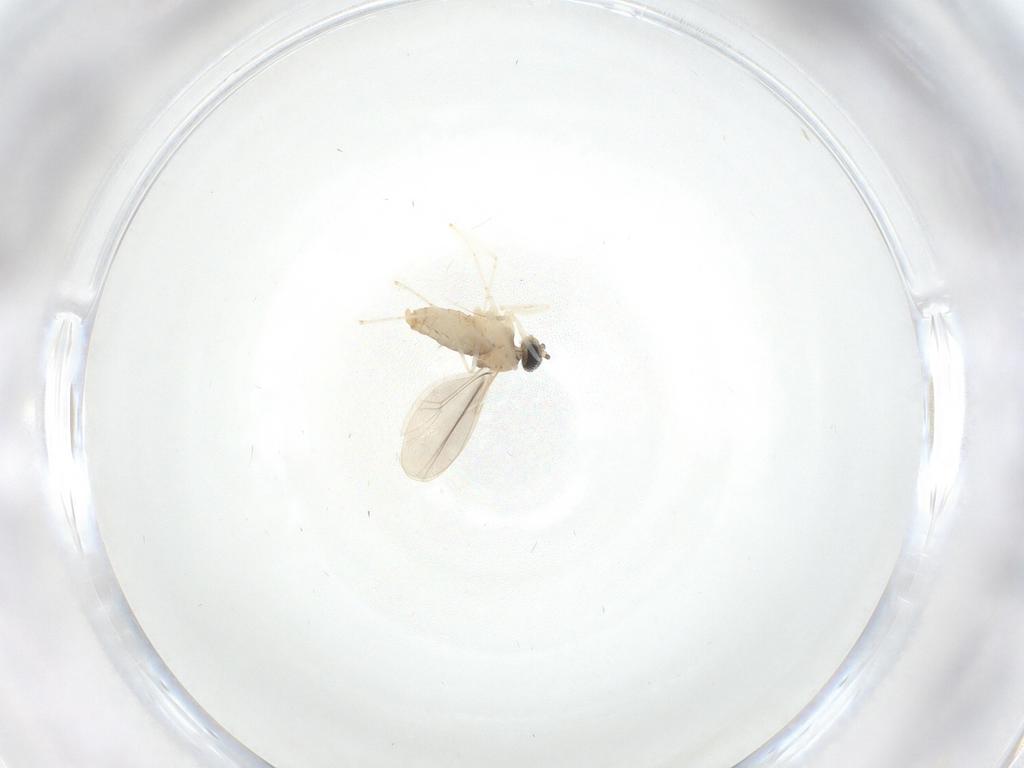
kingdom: Animalia
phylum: Arthropoda
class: Insecta
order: Diptera
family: Cecidomyiidae
